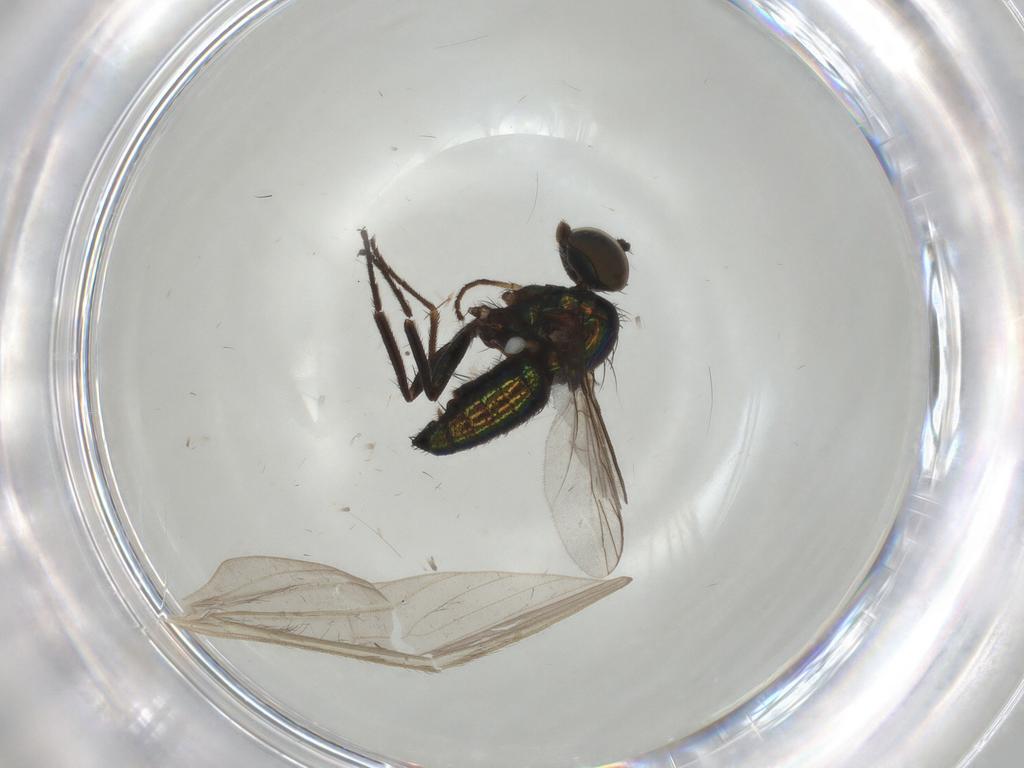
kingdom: Animalia
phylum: Arthropoda
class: Insecta
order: Diptera
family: Dolichopodidae
